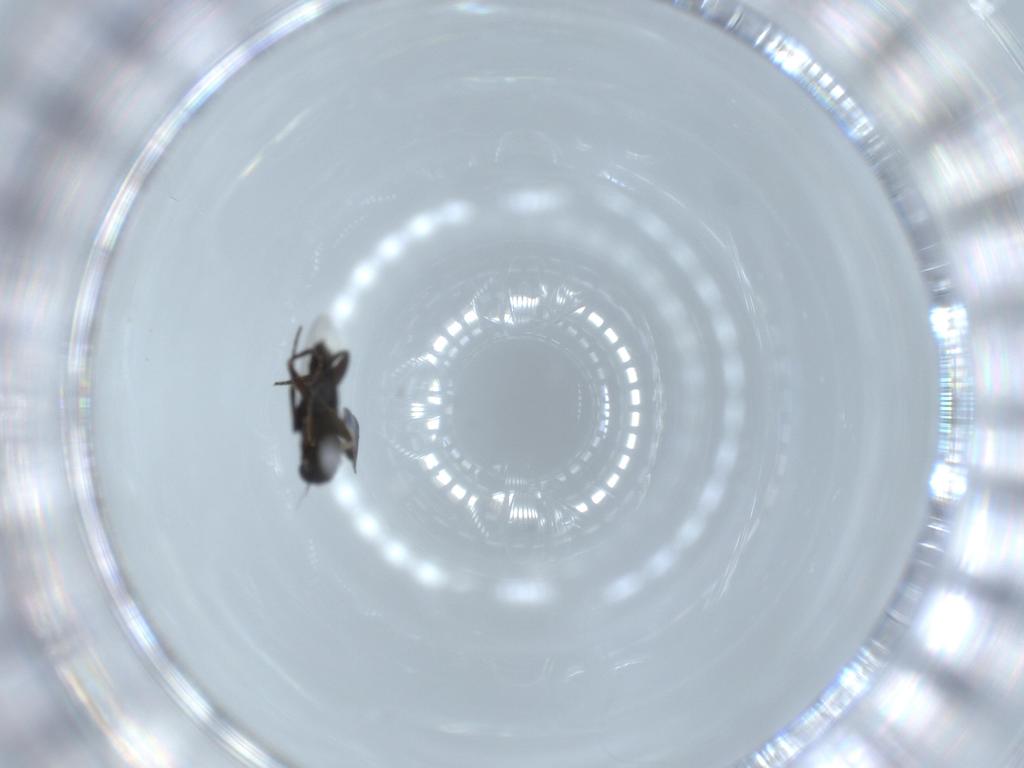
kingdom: Animalia
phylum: Arthropoda
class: Insecta
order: Diptera
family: Phoridae
